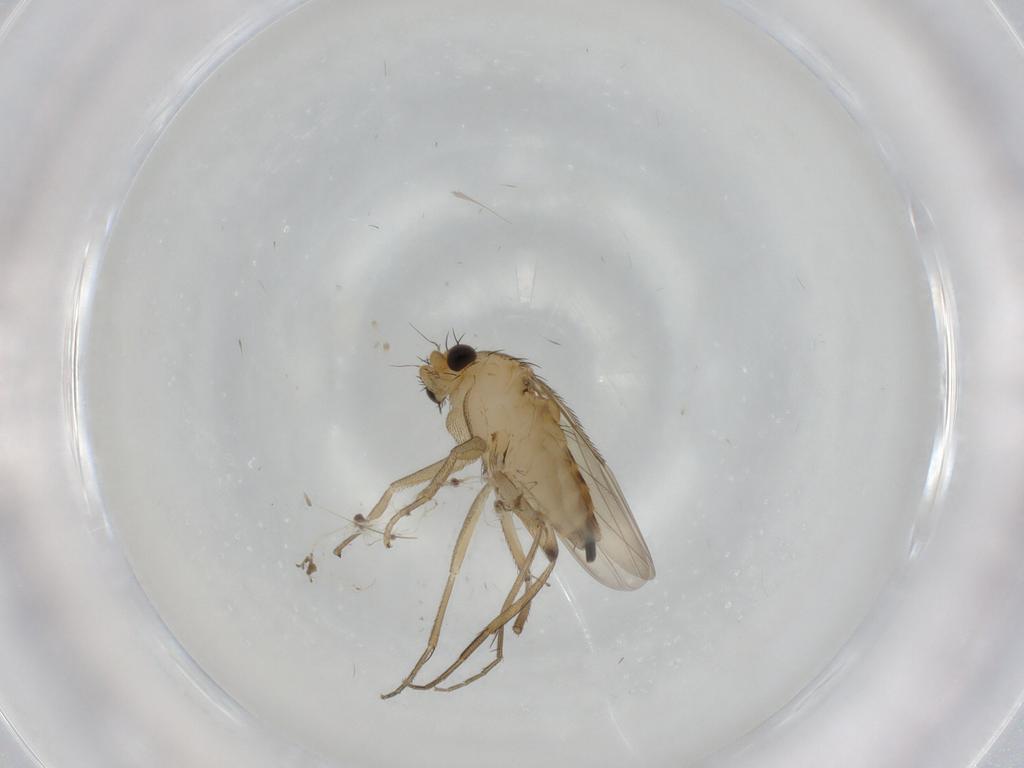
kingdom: Animalia
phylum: Arthropoda
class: Insecta
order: Diptera
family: Phoridae
